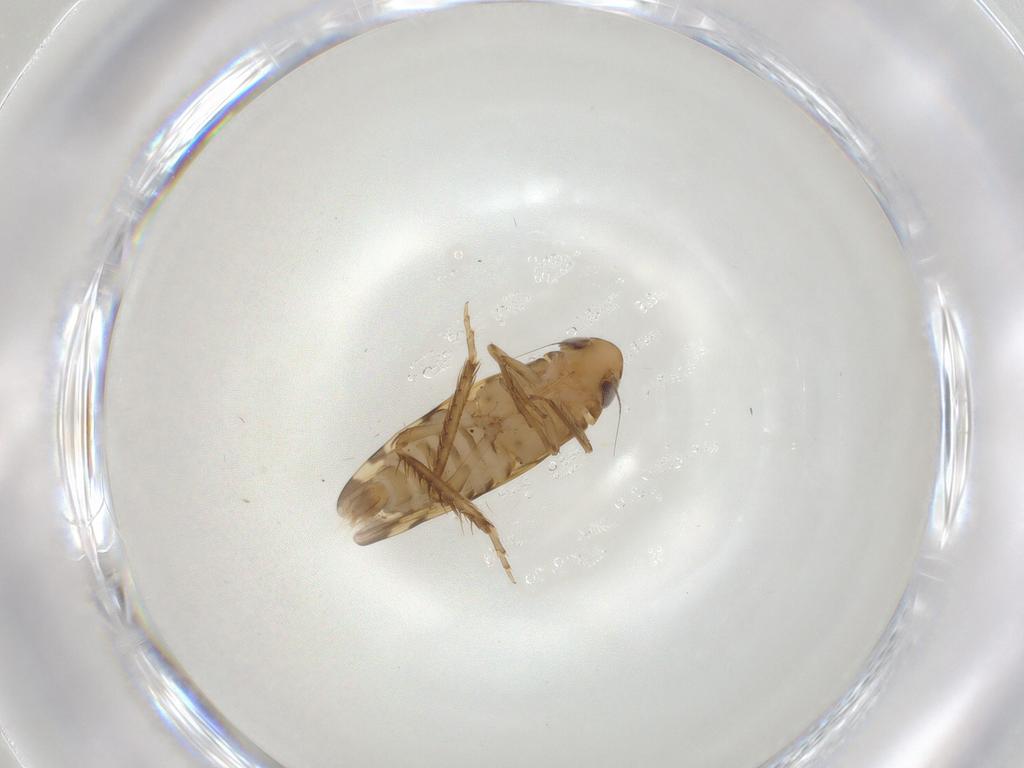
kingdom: Animalia
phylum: Arthropoda
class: Insecta
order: Hemiptera
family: Cicadellidae
